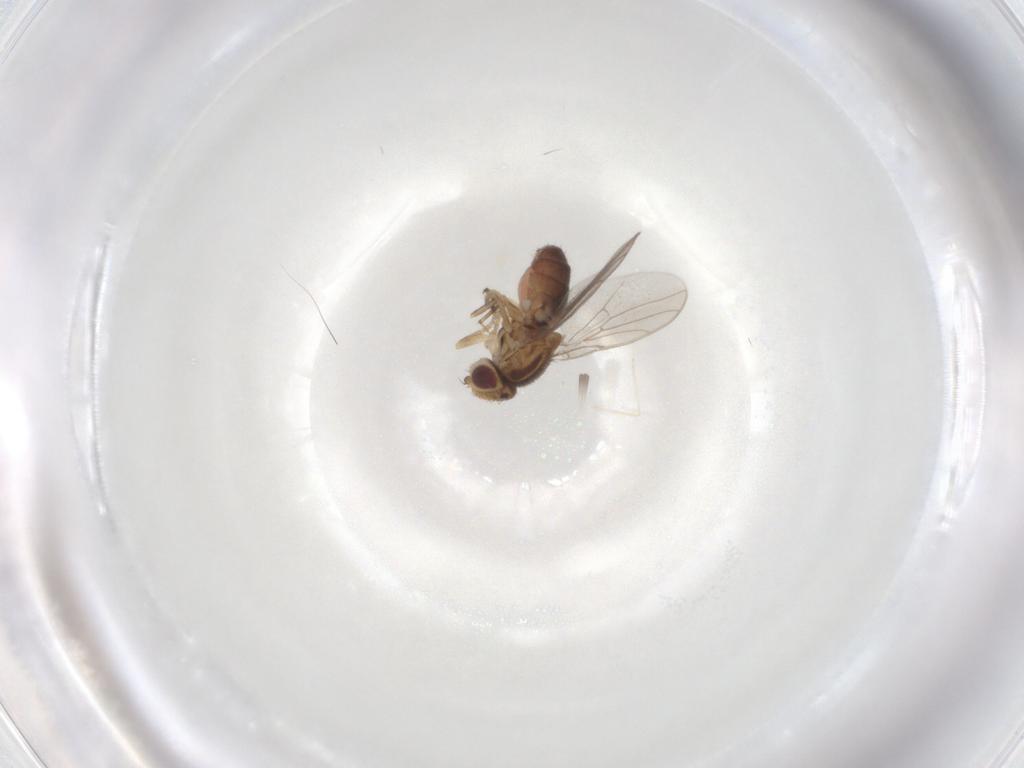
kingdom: Animalia
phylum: Arthropoda
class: Insecta
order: Diptera
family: Chloropidae
